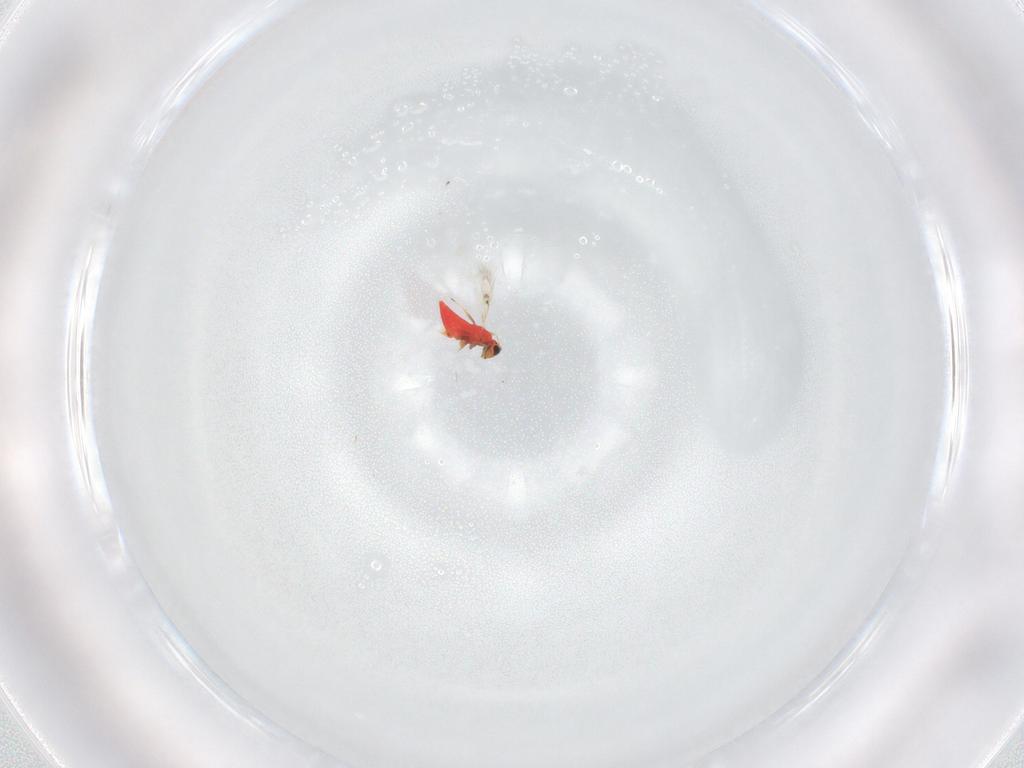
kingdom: Animalia
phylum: Arthropoda
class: Insecta
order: Hymenoptera
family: Trichogrammatidae
